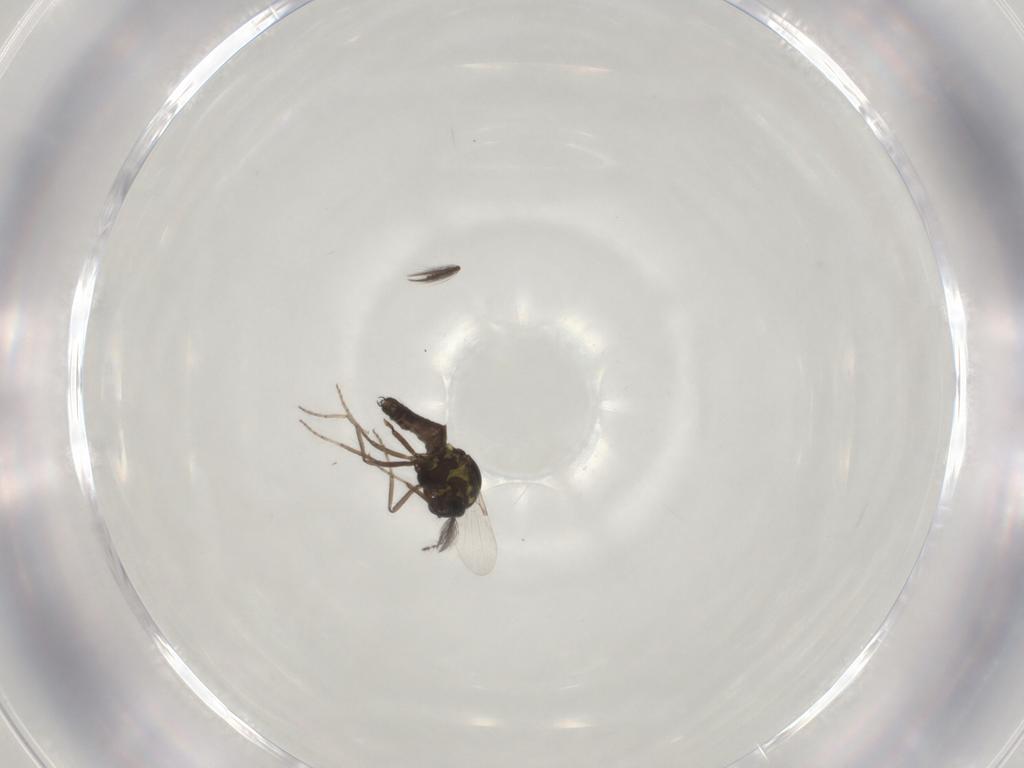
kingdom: Animalia
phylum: Arthropoda
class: Insecta
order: Diptera
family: Ceratopogonidae
